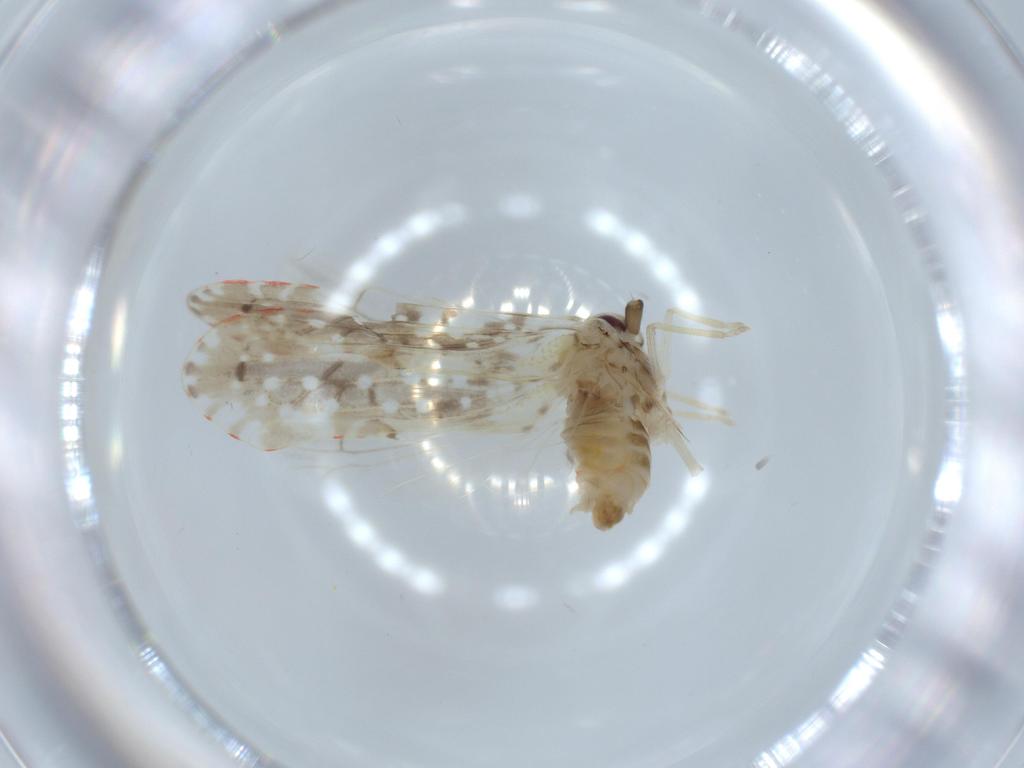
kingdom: Animalia
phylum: Arthropoda
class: Insecta
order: Hemiptera
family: Derbidae
